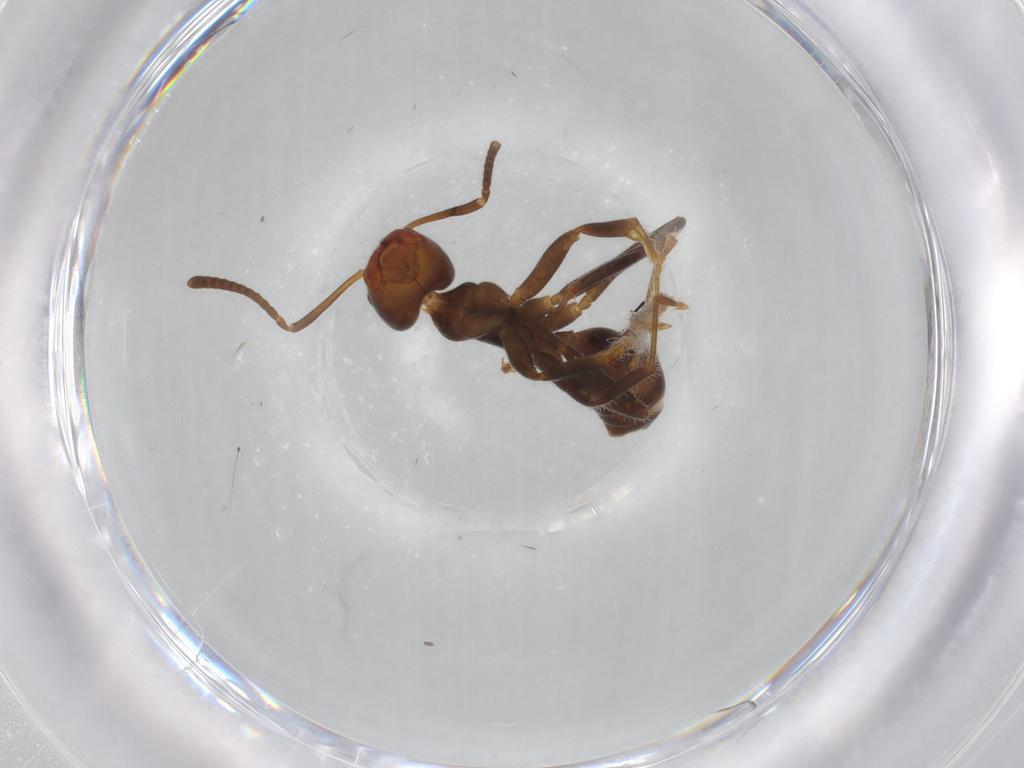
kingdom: Animalia
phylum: Arthropoda
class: Insecta
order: Hymenoptera
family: Formicidae
